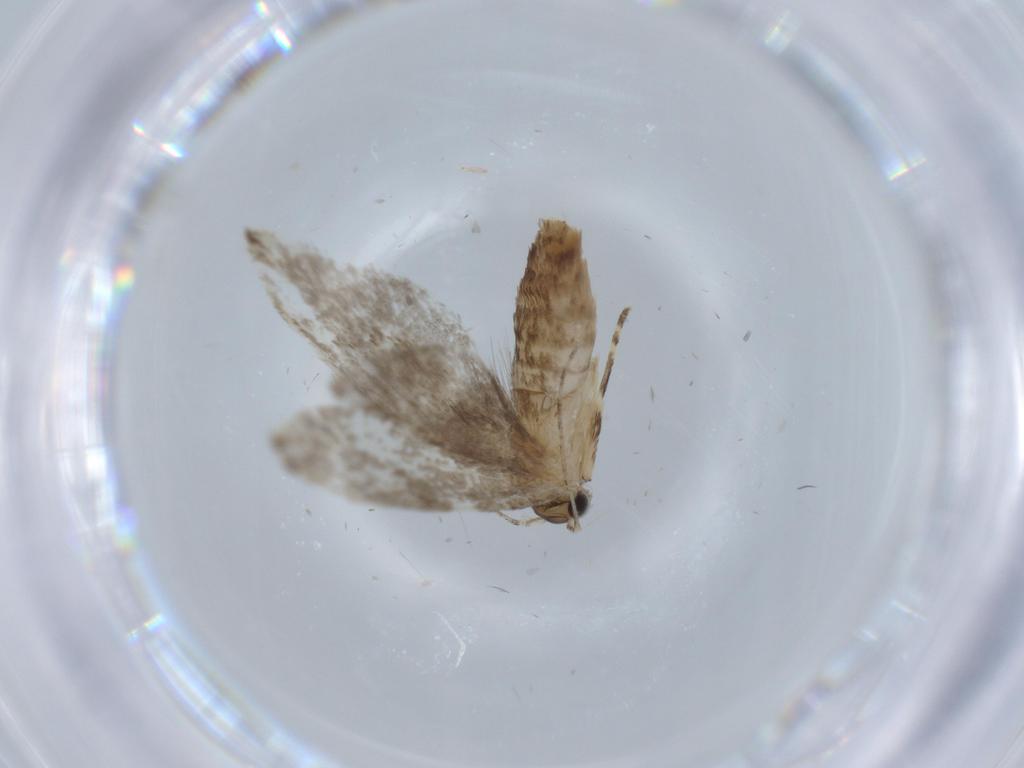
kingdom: Animalia
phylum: Arthropoda
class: Insecta
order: Lepidoptera
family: Tineidae
